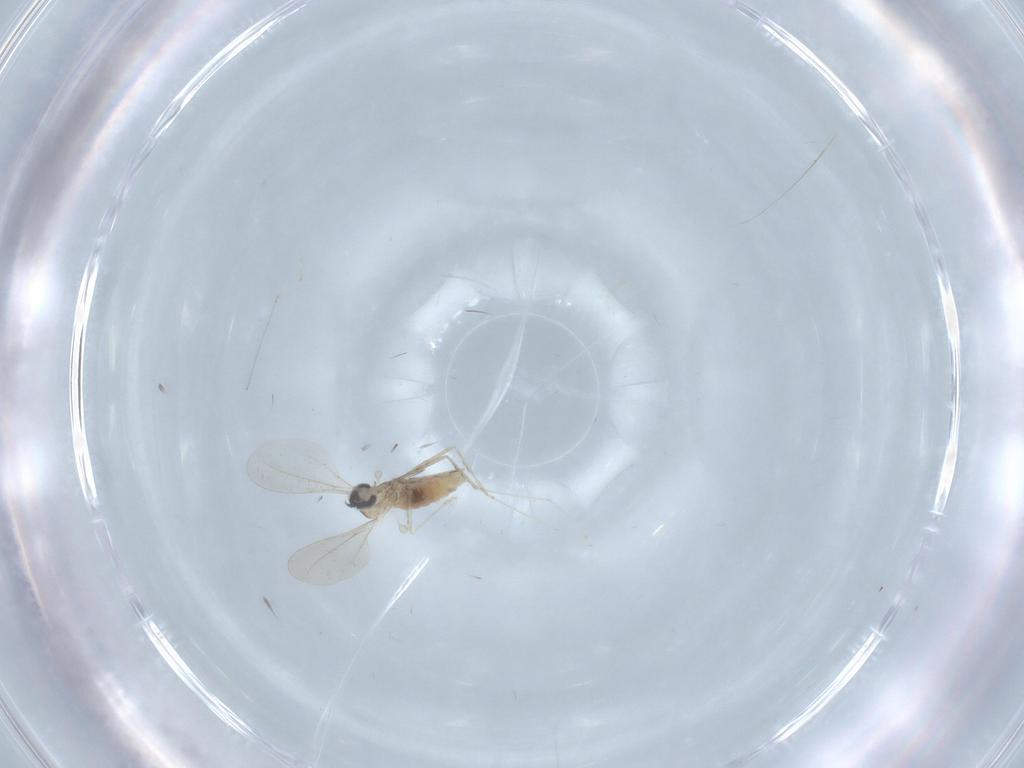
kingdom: Animalia
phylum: Arthropoda
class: Insecta
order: Diptera
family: Cecidomyiidae
